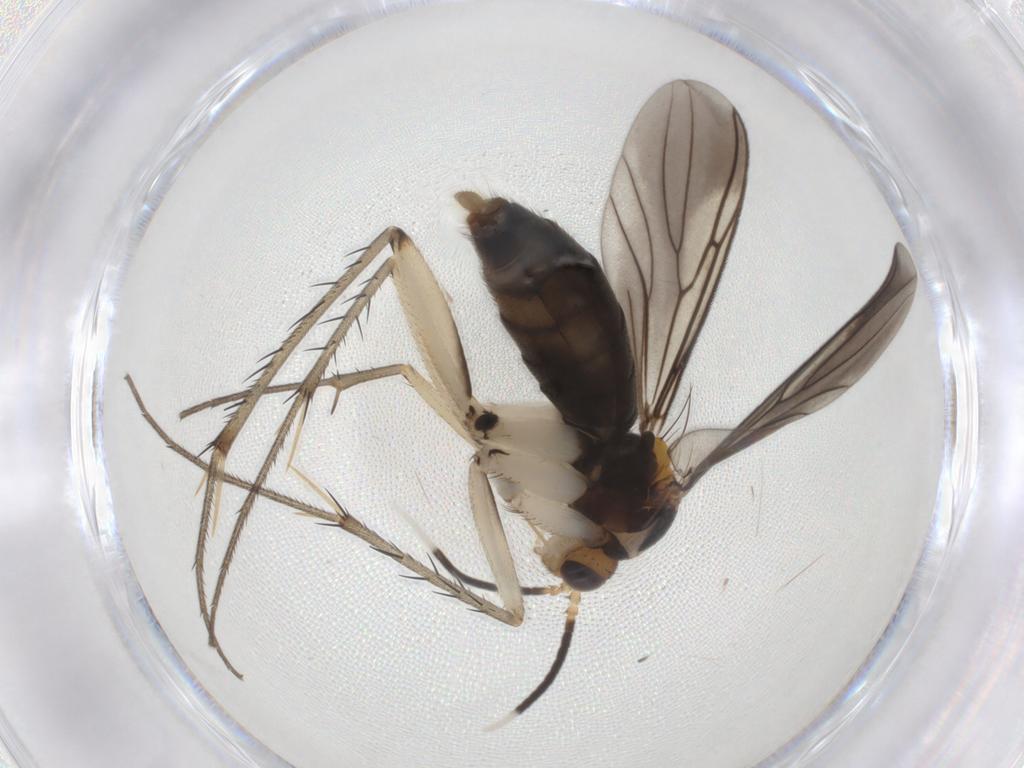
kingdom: Animalia
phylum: Arthropoda
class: Insecta
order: Diptera
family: Mycetophilidae
